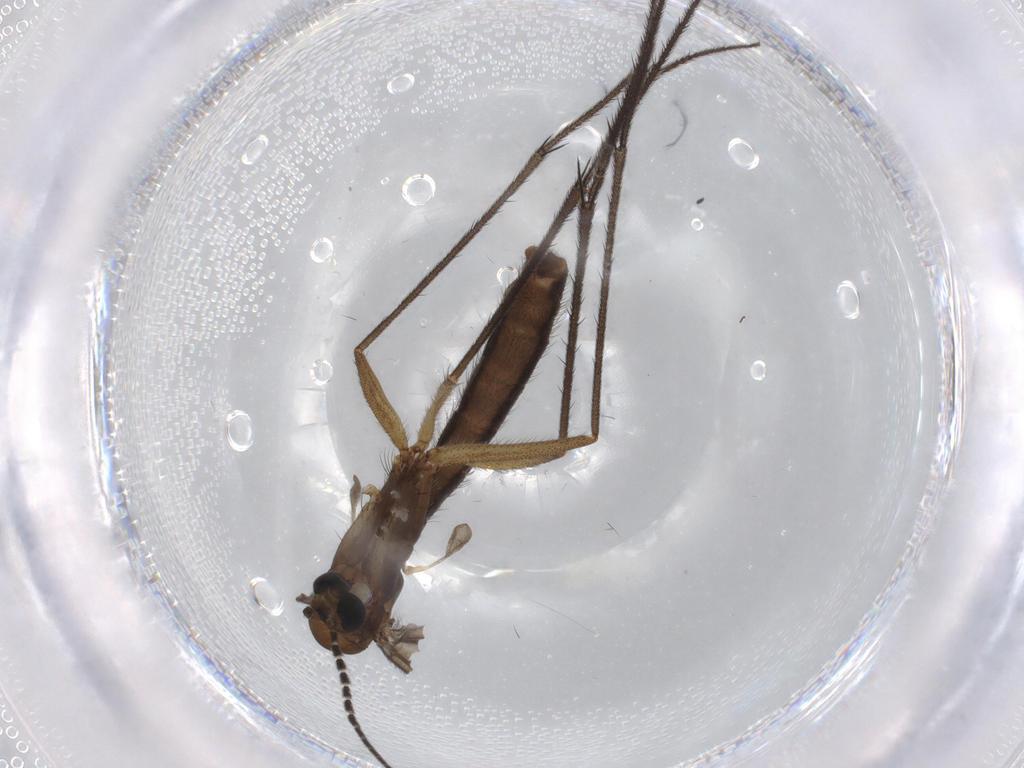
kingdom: Animalia
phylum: Arthropoda
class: Insecta
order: Diptera
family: Ditomyiidae
